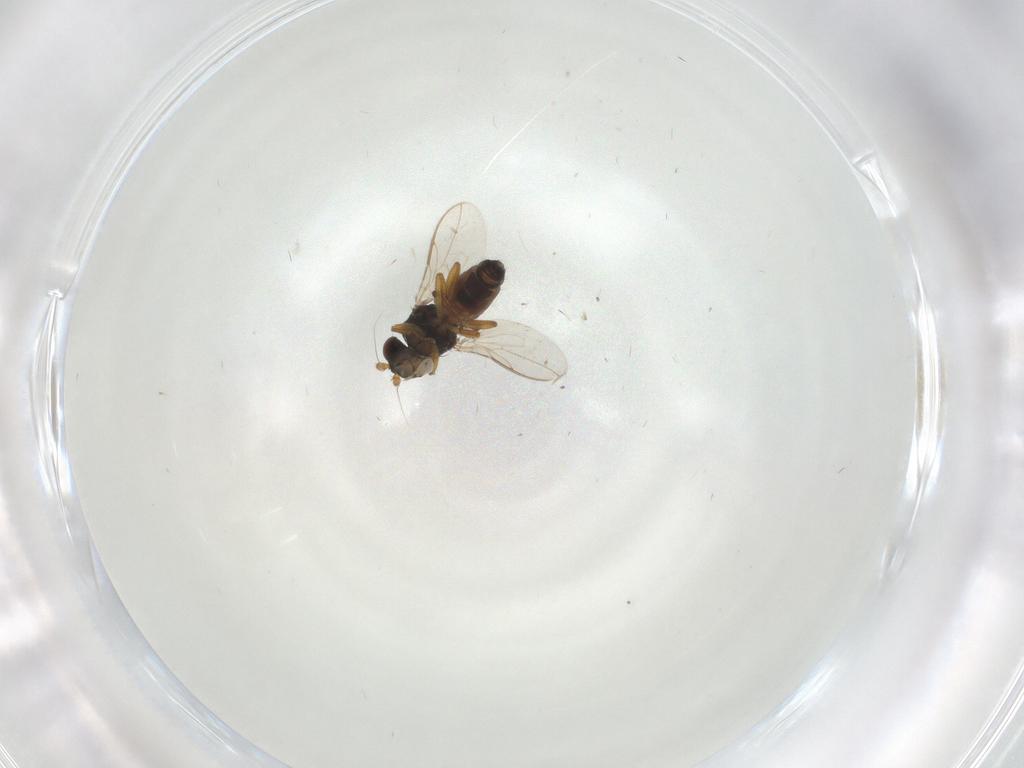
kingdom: Animalia
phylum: Arthropoda
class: Insecta
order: Diptera
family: Sphaeroceridae
